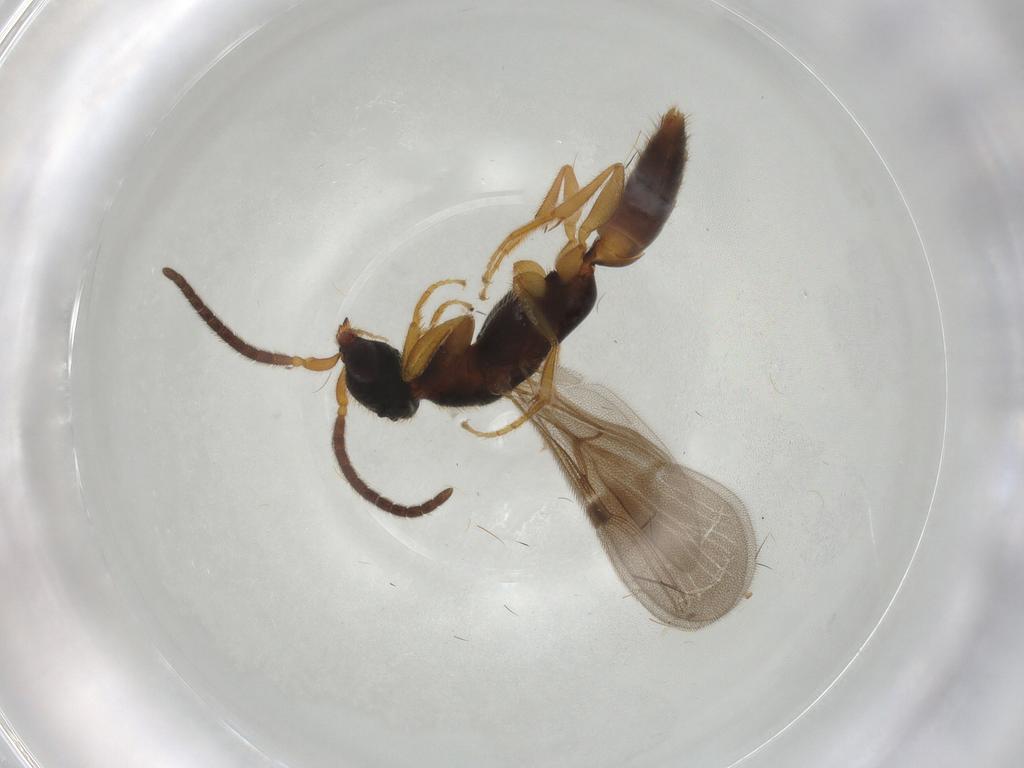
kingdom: Animalia
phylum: Arthropoda
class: Insecta
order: Hymenoptera
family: Bethylidae
